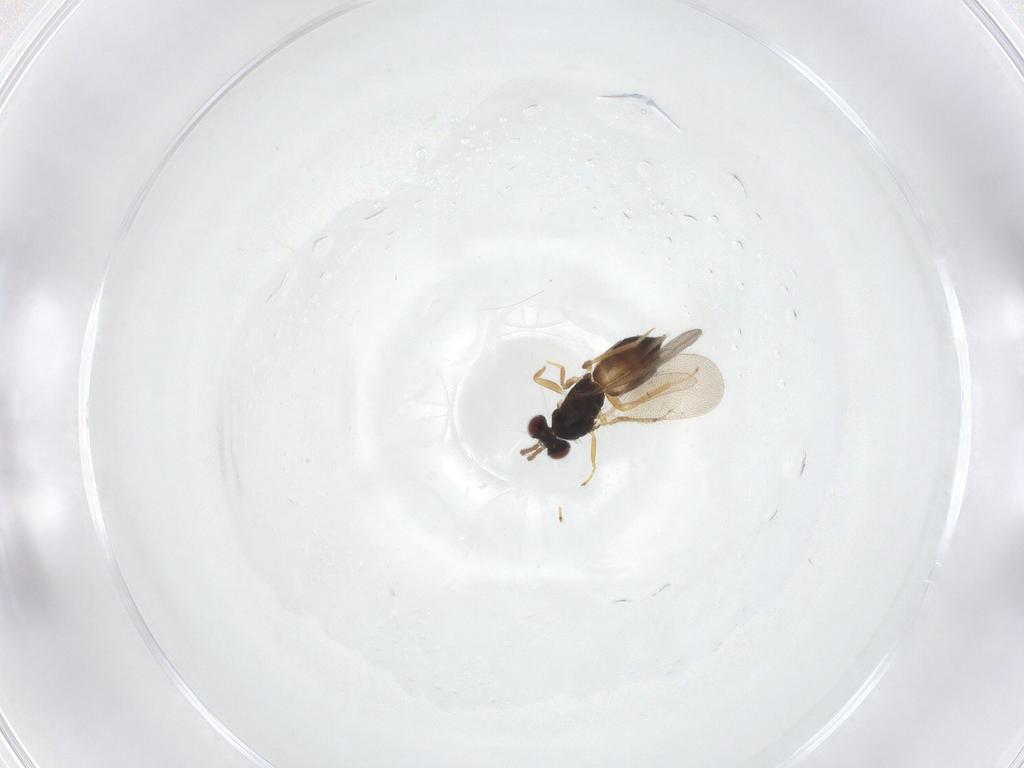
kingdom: Animalia
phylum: Arthropoda
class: Insecta
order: Hymenoptera
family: Eulophidae
